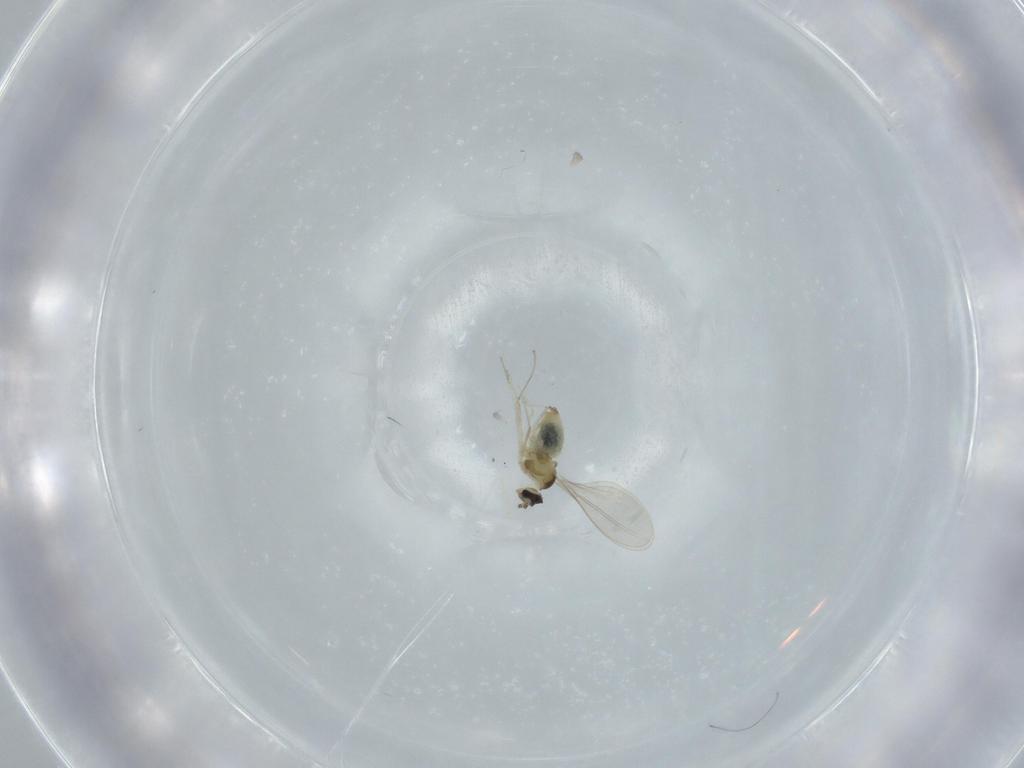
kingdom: Animalia
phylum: Arthropoda
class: Insecta
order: Diptera
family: Cecidomyiidae
